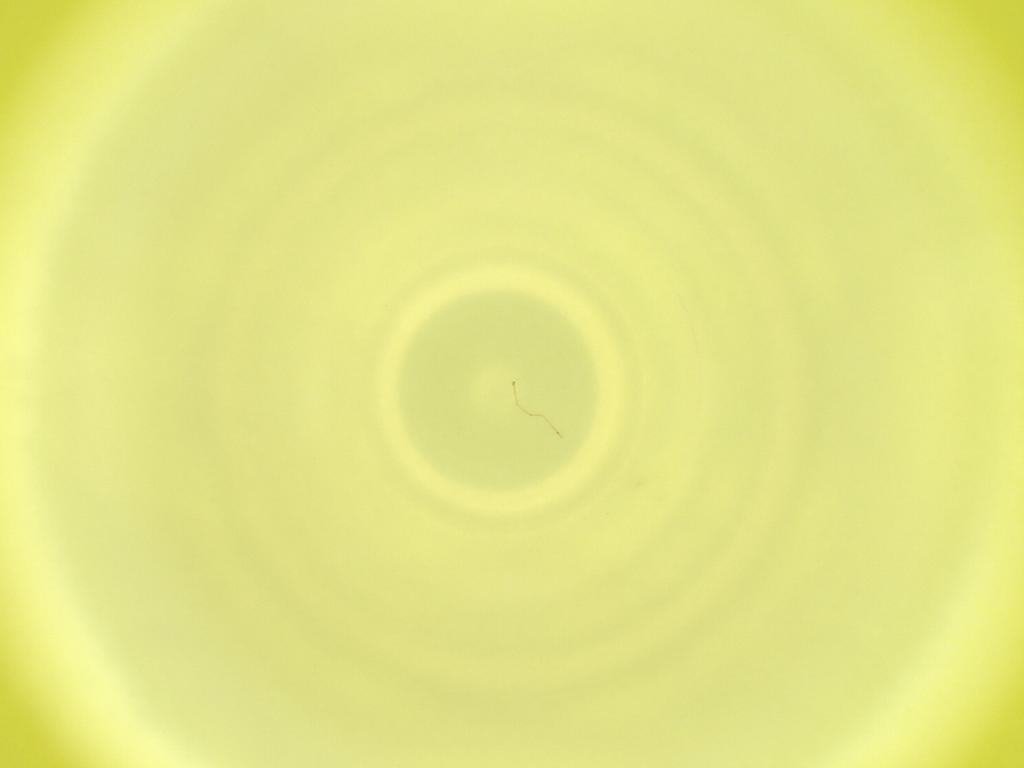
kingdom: Animalia
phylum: Arthropoda
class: Insecta
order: Diptera
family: Cecidomyiidae
